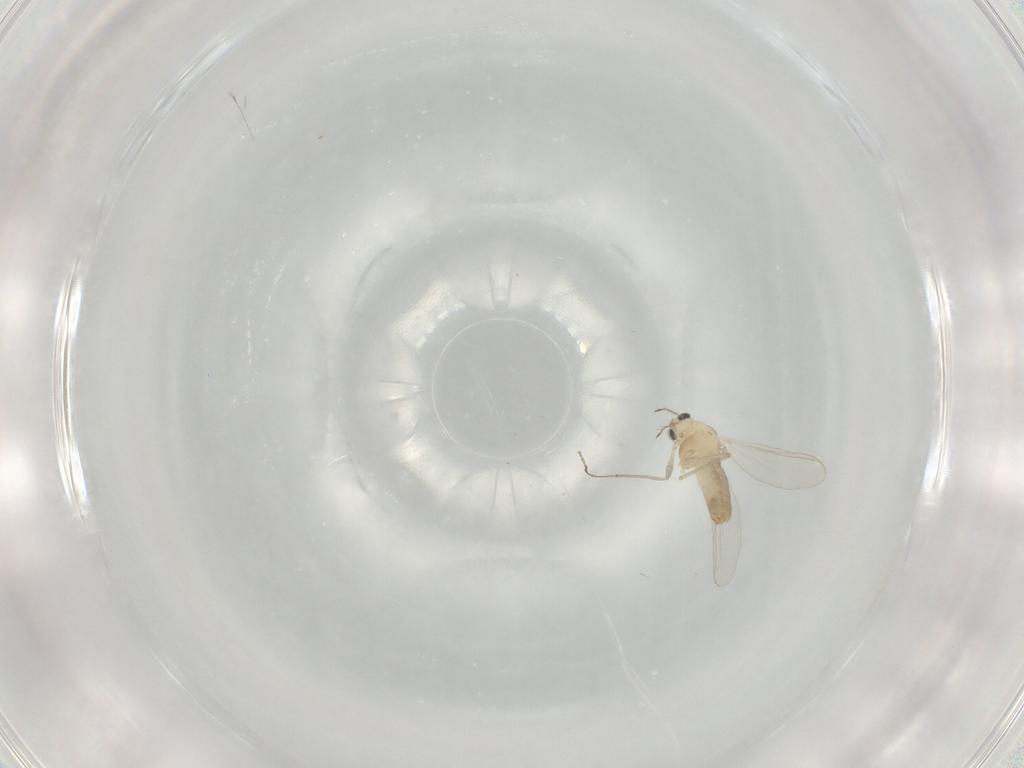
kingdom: Animalia
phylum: Arthropoda
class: Insecta
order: Diptera
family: Chironomidae
